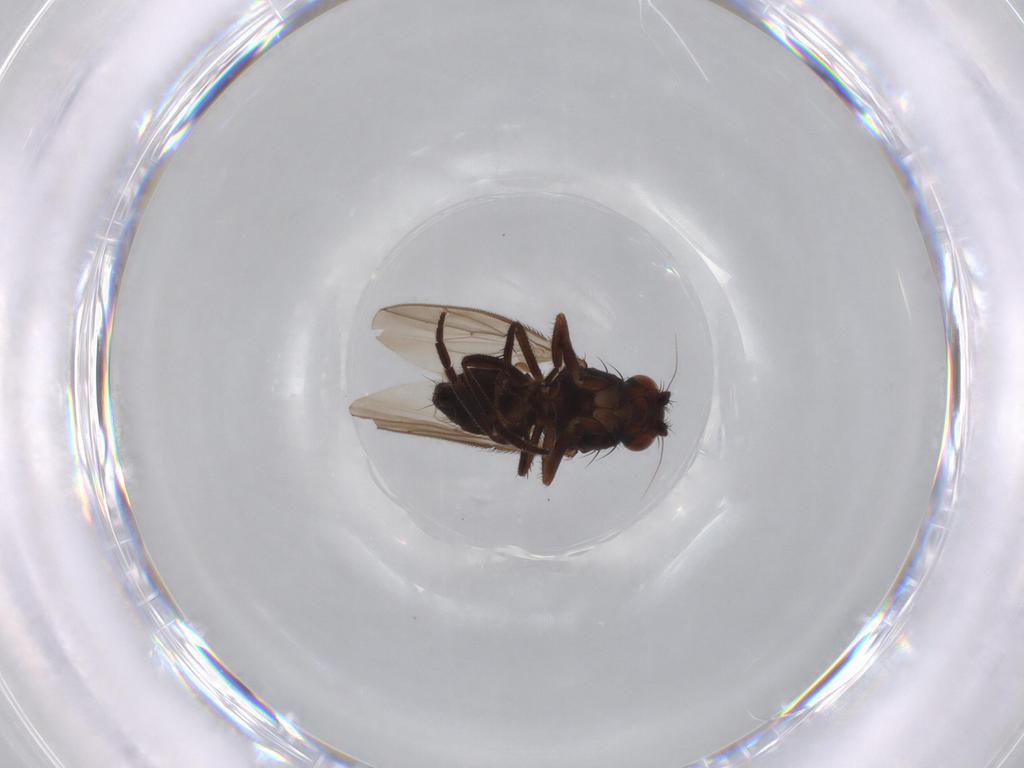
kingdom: Animalia
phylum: Arthropoda
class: Insecta
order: Diptera
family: Sphaeroceridae
